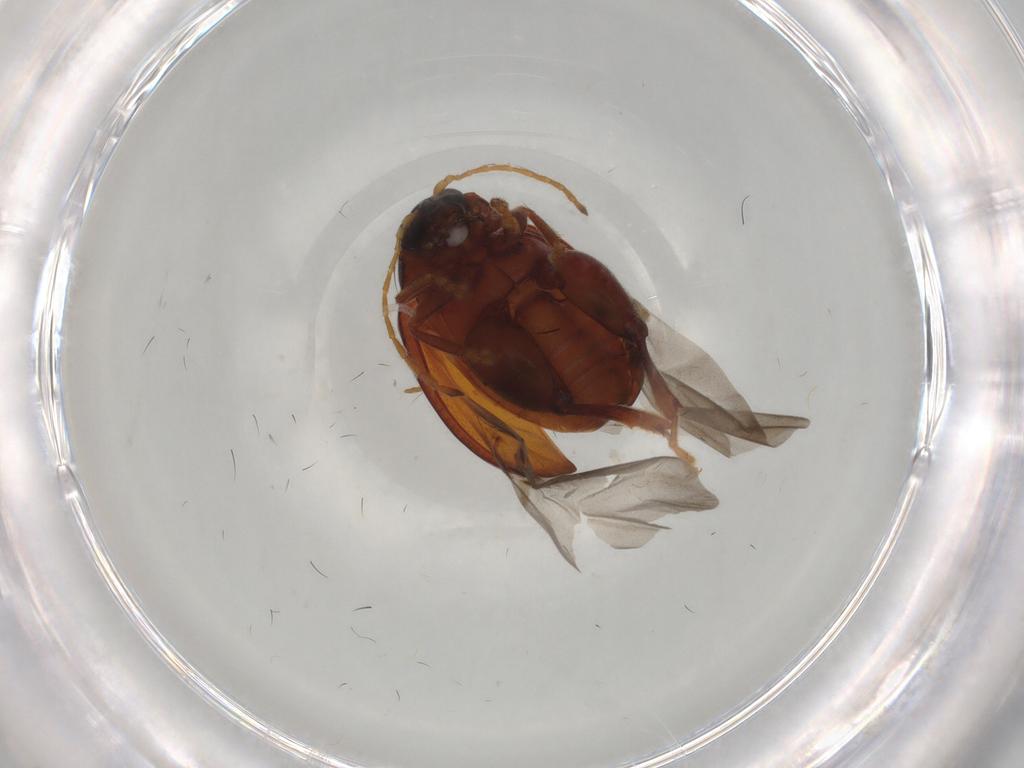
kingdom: Animalia
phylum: Arthropoda
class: Insecta
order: Coleoptera
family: Chrysomelidae
